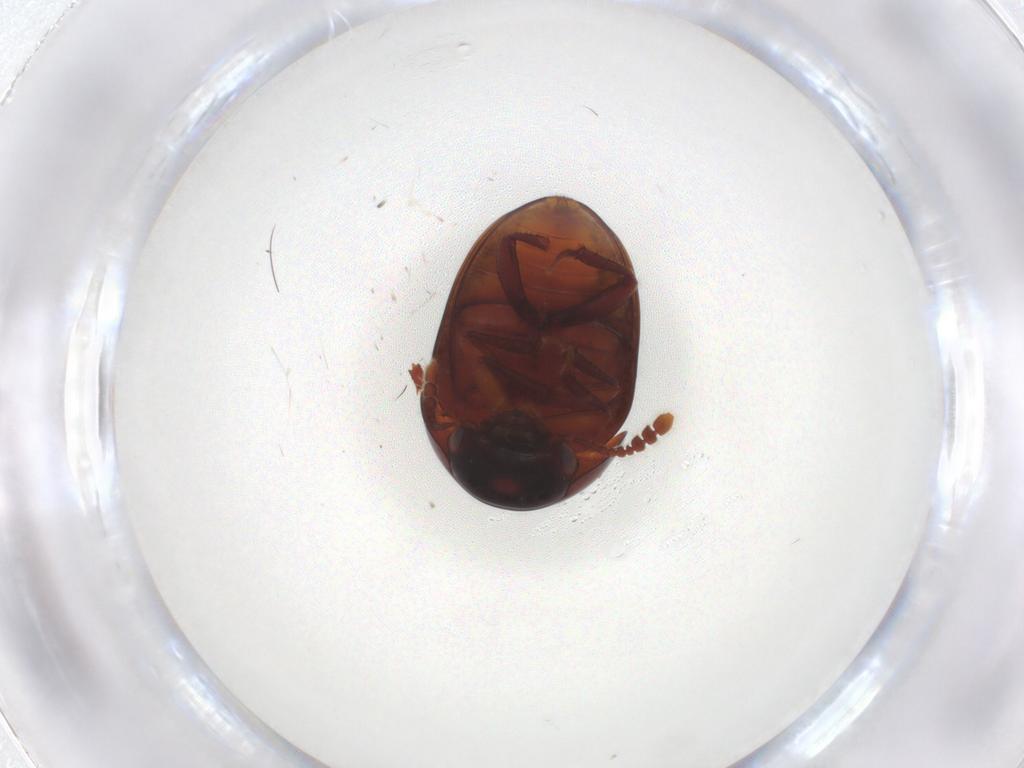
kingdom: Animalia
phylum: Arthropoda
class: Insecta
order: Coleoptera
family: Leiodidae
